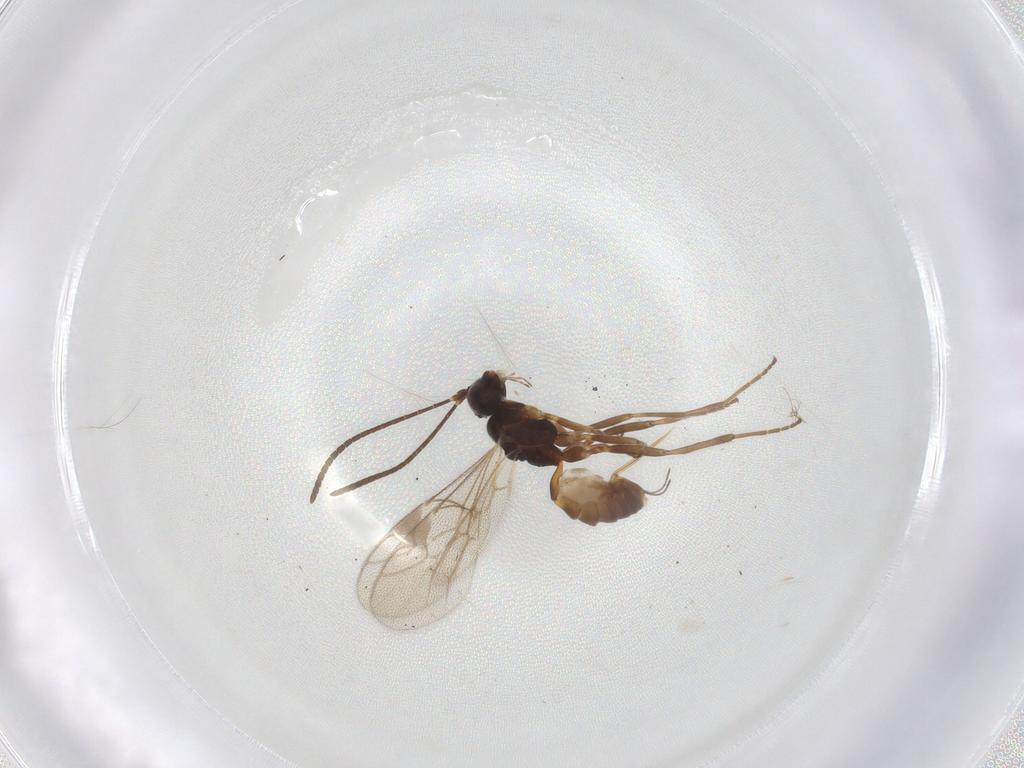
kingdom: Animalia
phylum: Arthropoda
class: Insecta
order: Hymenoptera
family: Ichneumonidae
